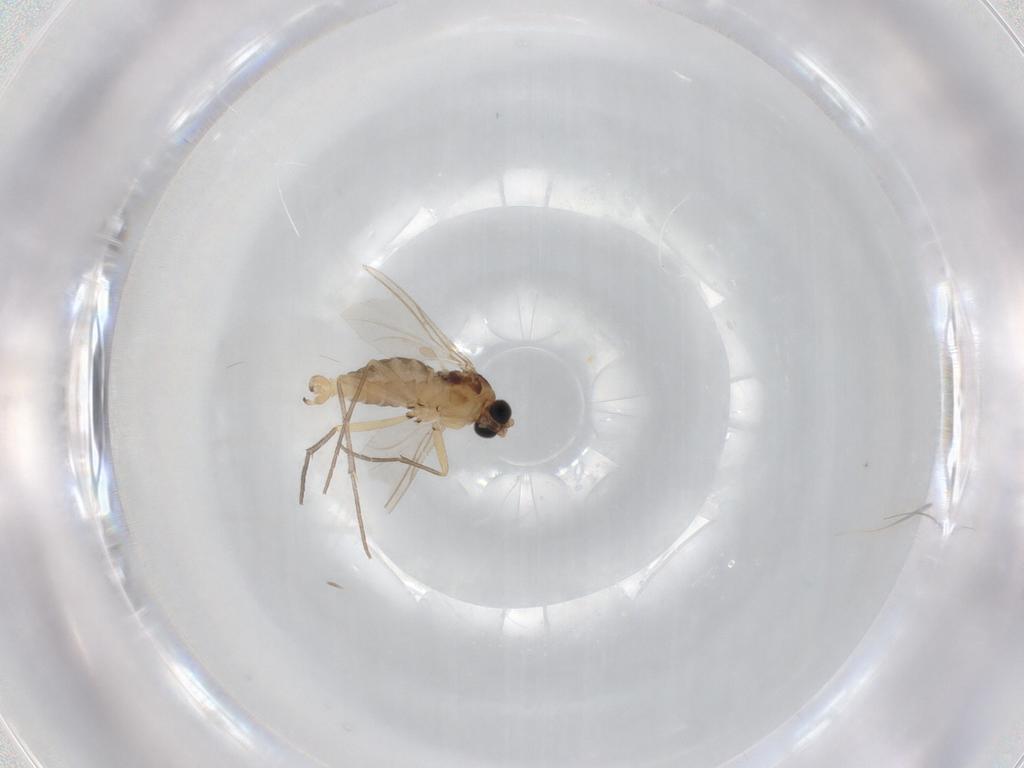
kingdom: Animalia
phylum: Arthropoda
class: Insecta
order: Diptera
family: Sciaridae
